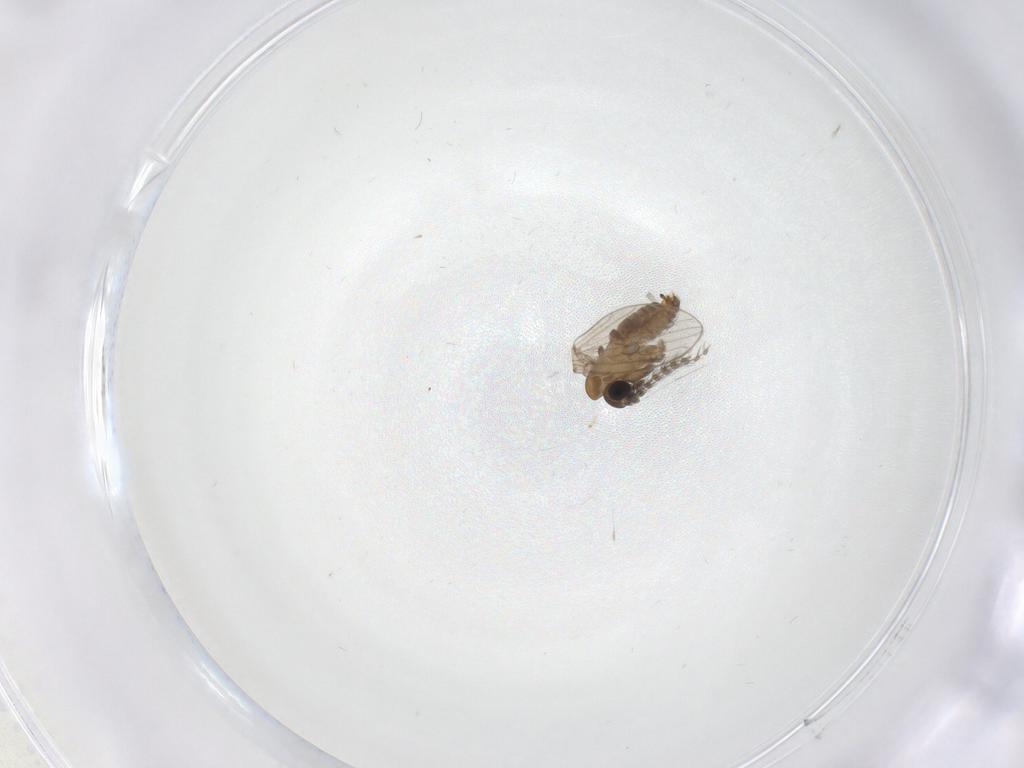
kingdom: Animalia
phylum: Arthropoda
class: Insecta
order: Diptera
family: Psychodidae
